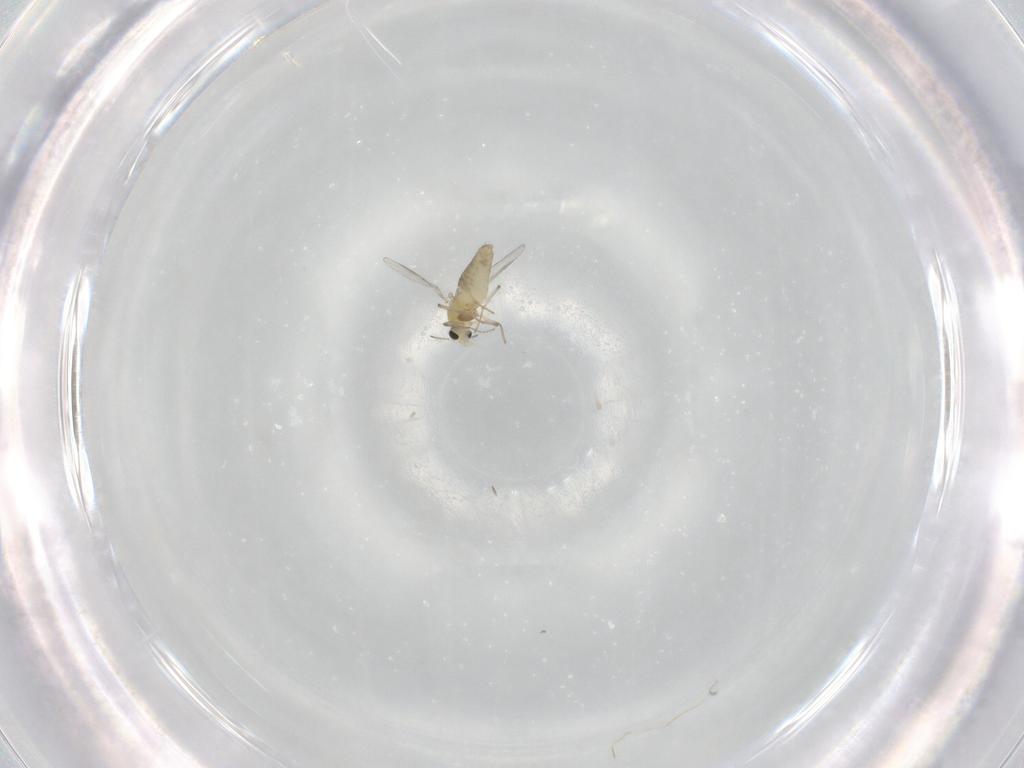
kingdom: Animalia
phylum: Arthropoda
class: Insecta
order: Diptera
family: Chironomidae
